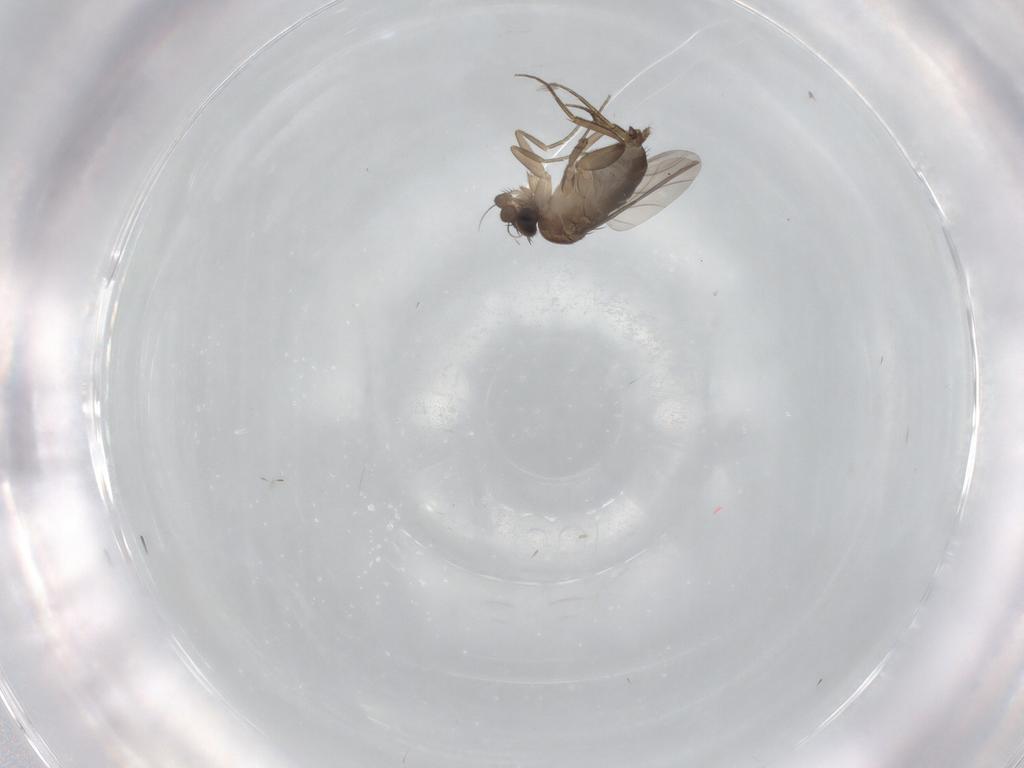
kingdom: Animalia
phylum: Arthropoda
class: Insecta
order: Diptera
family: Phoridae
